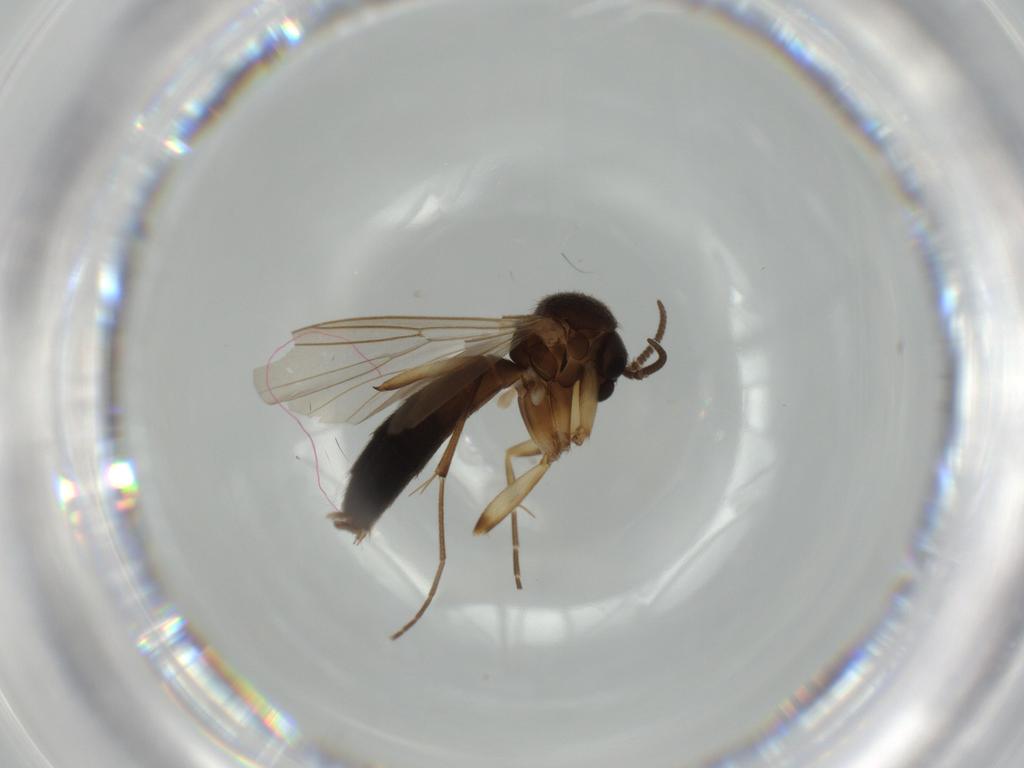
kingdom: Animalia
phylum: Arthropoda
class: Insecta
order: Diptera
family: Mycetophilidae
